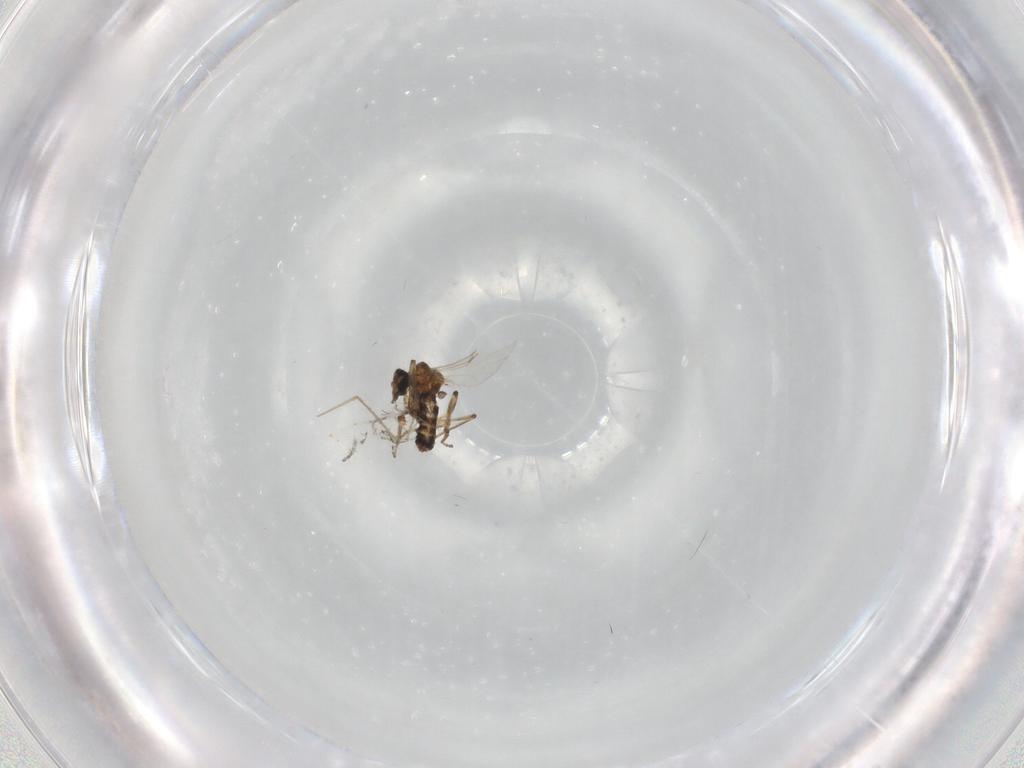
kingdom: Animalia
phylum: Arthropoda
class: Insecta
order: Diptera
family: Ceratopogonidae
